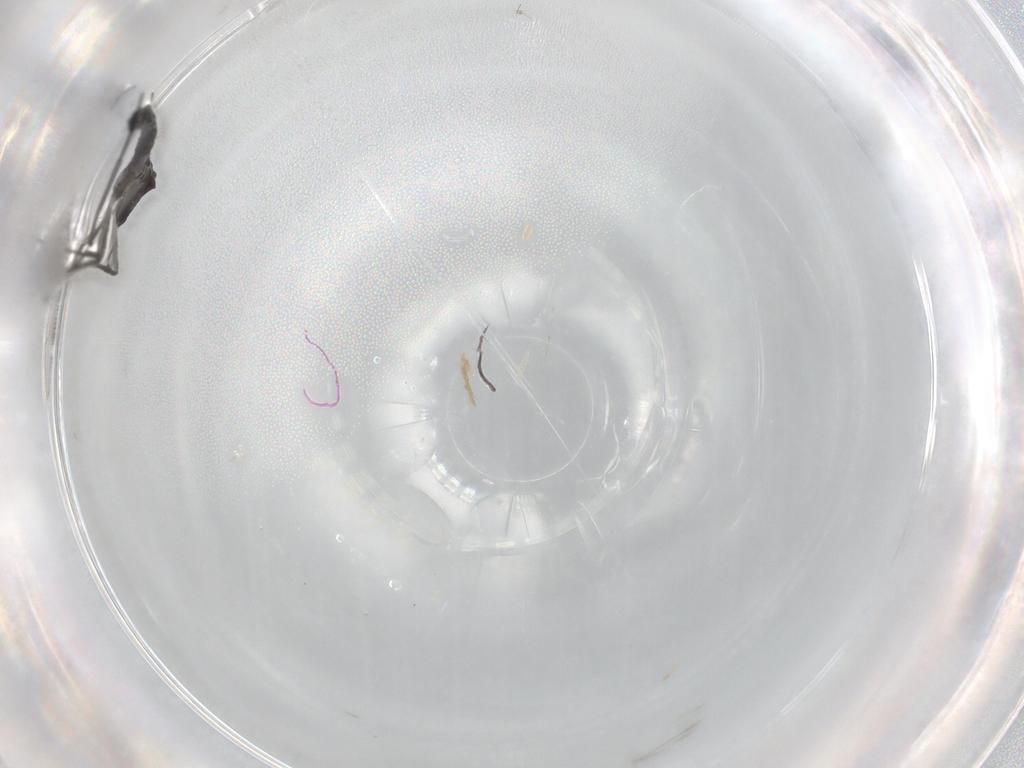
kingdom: Animalia
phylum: Arthropoda
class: Insecta
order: Diptera
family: Sciaridae
